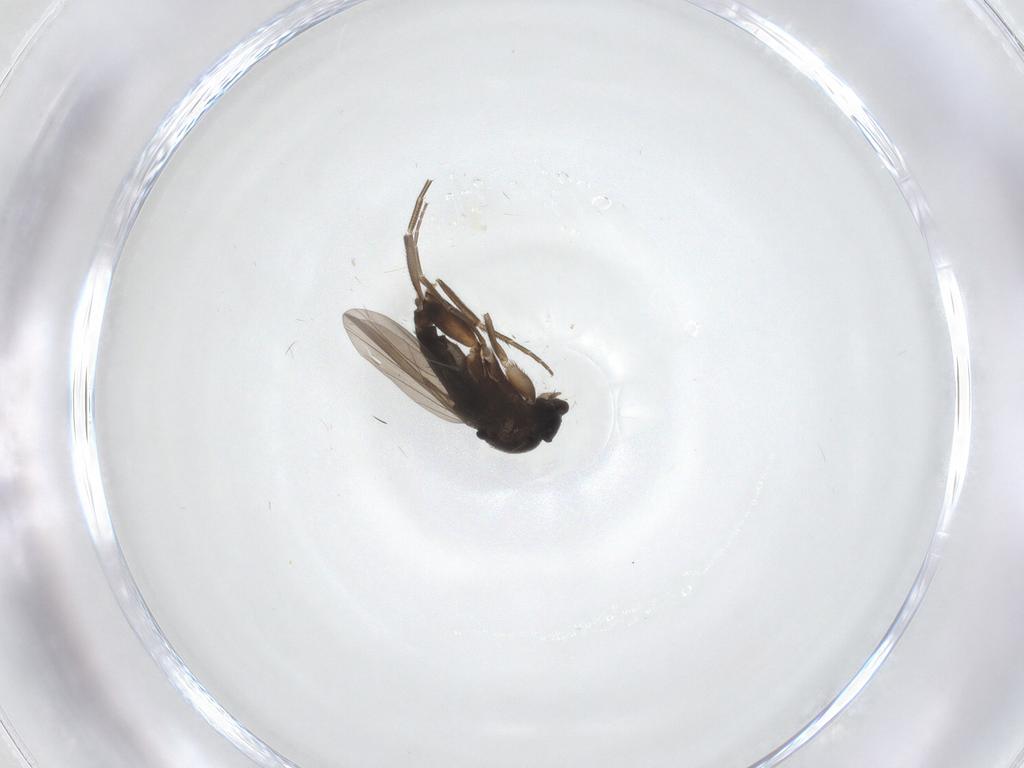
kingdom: Animalia
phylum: Arthropoda
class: Insecta
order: Diptera
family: Phoridae
